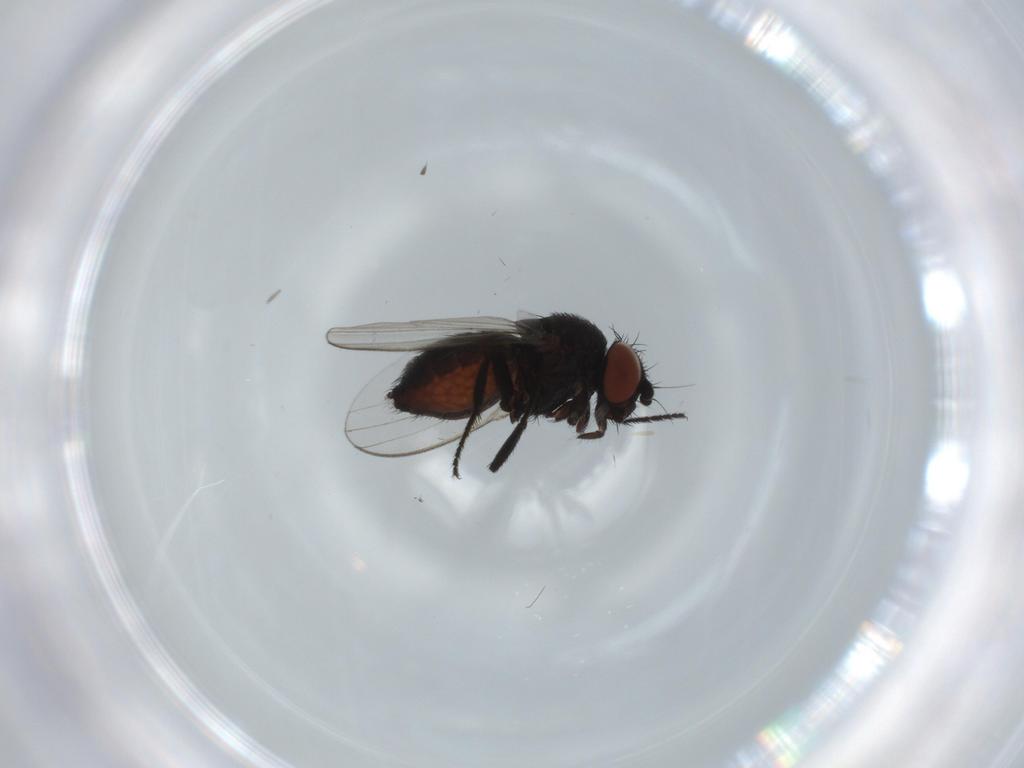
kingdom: Animalia
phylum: Arthropoda
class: Insecta
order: Diptera
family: Milichiidae
